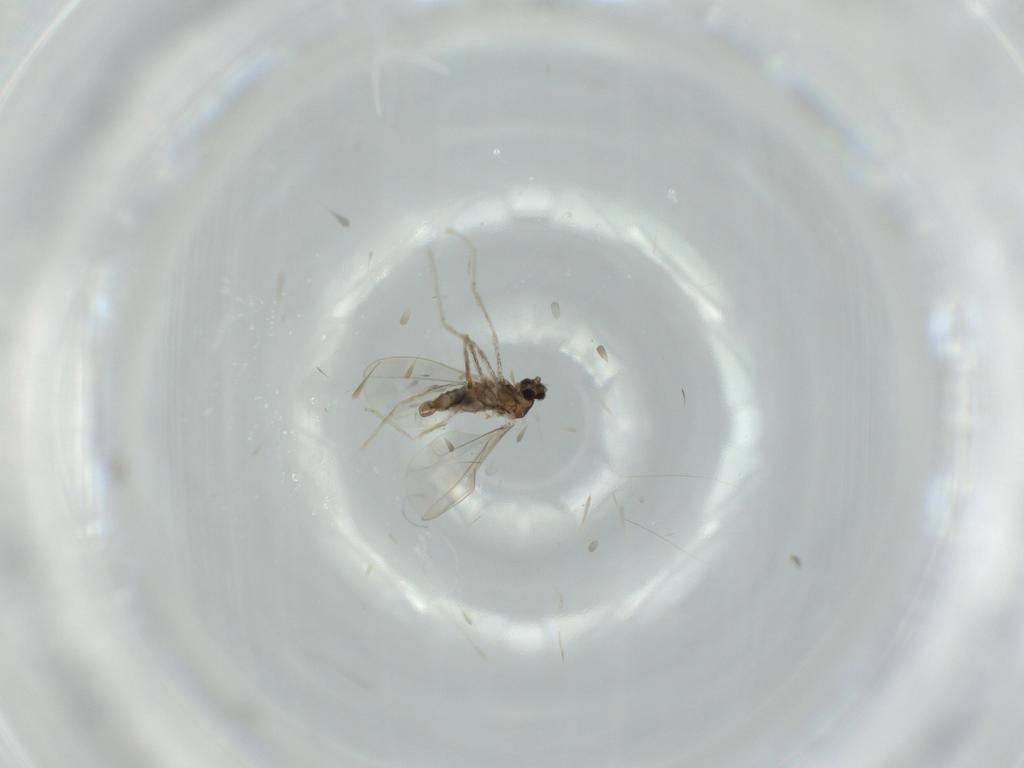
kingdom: Animalia
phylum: Arthropoda
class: Insecta
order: Diptera
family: Cecidomyiidae
